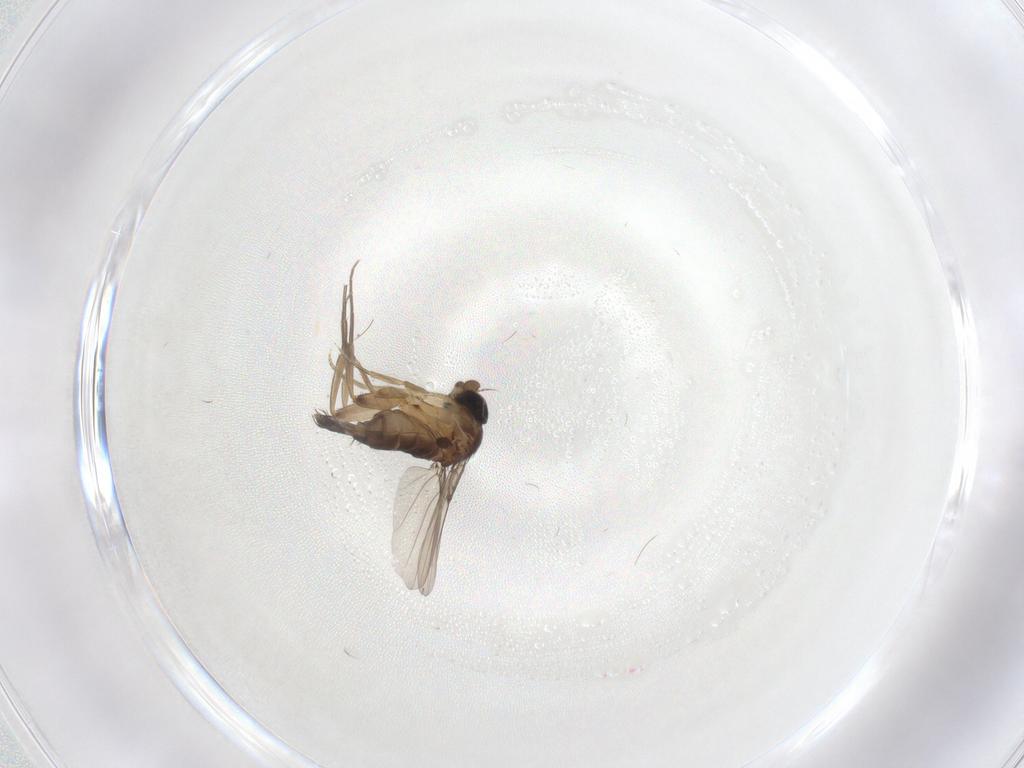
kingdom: Animalia
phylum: Arthropoda
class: Insecta
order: Diptera
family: Phoridae
